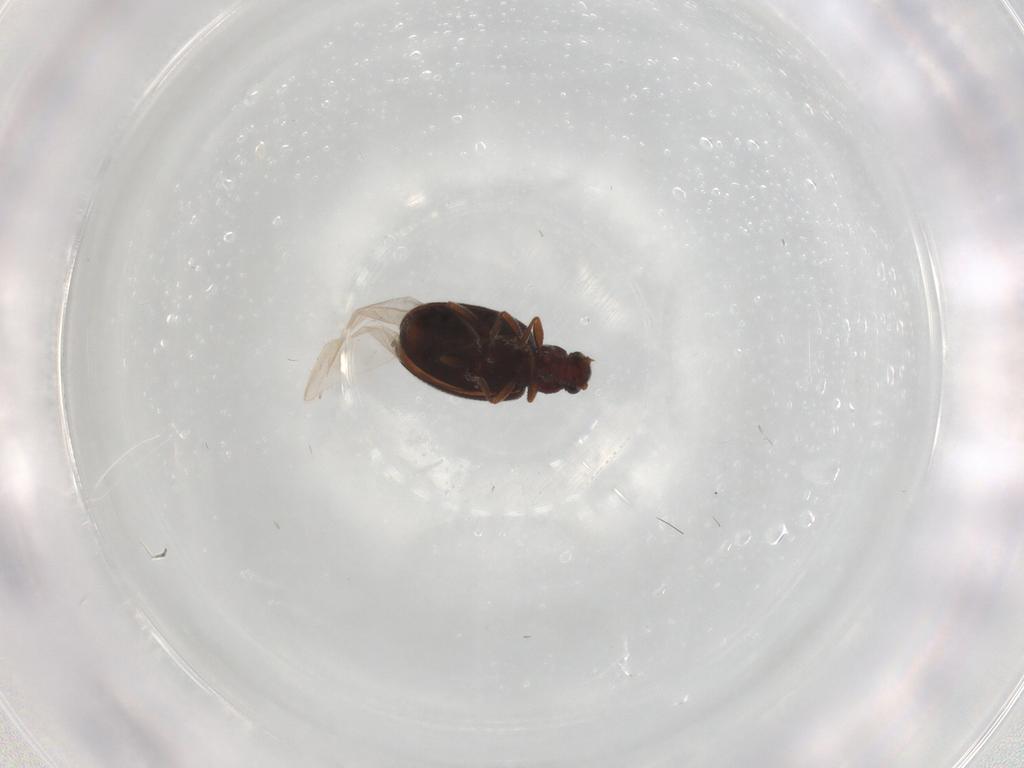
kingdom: Animalia
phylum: Arthropoda
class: Insecta
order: Coleoptera
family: Latridiidae
